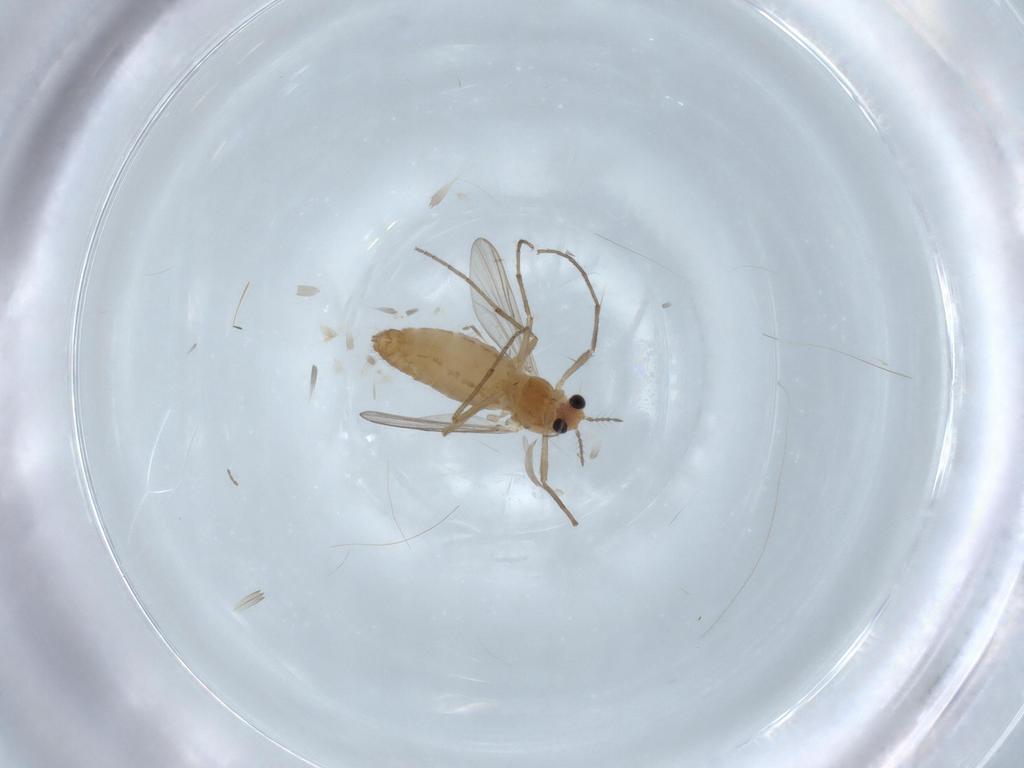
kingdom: Animalia
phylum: Arthropoda
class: Insecta
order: Diptera
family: Chironomidae
